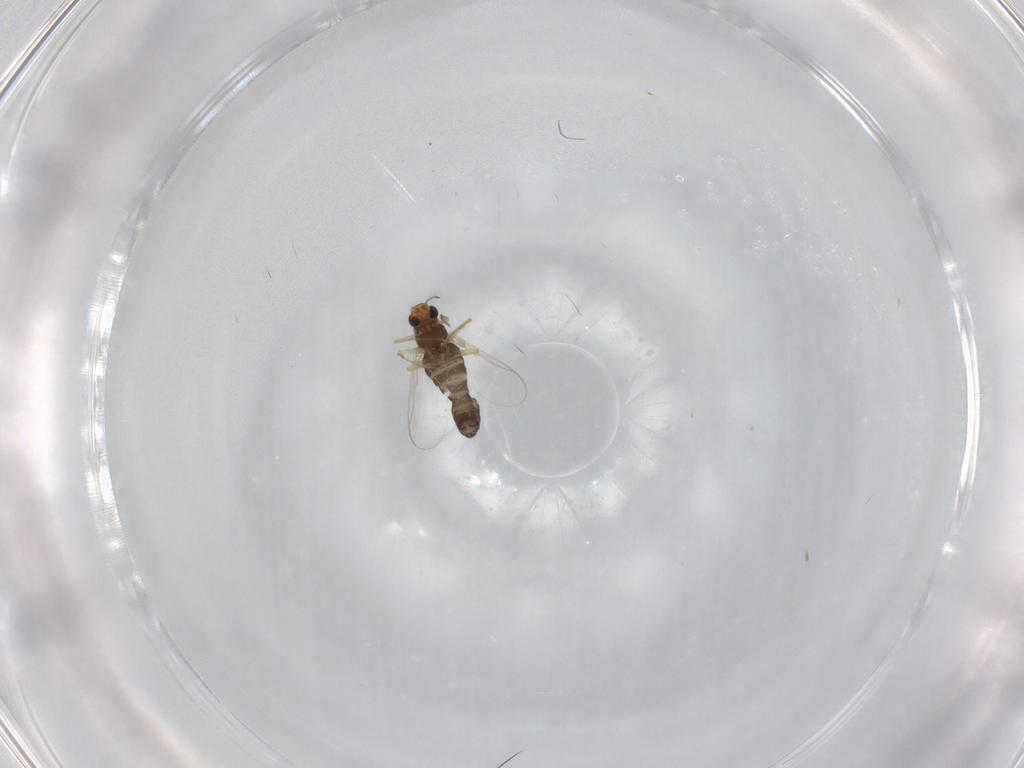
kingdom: Animalia
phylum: Arthropoda
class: Insecta
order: Diptera
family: Chironomidae
